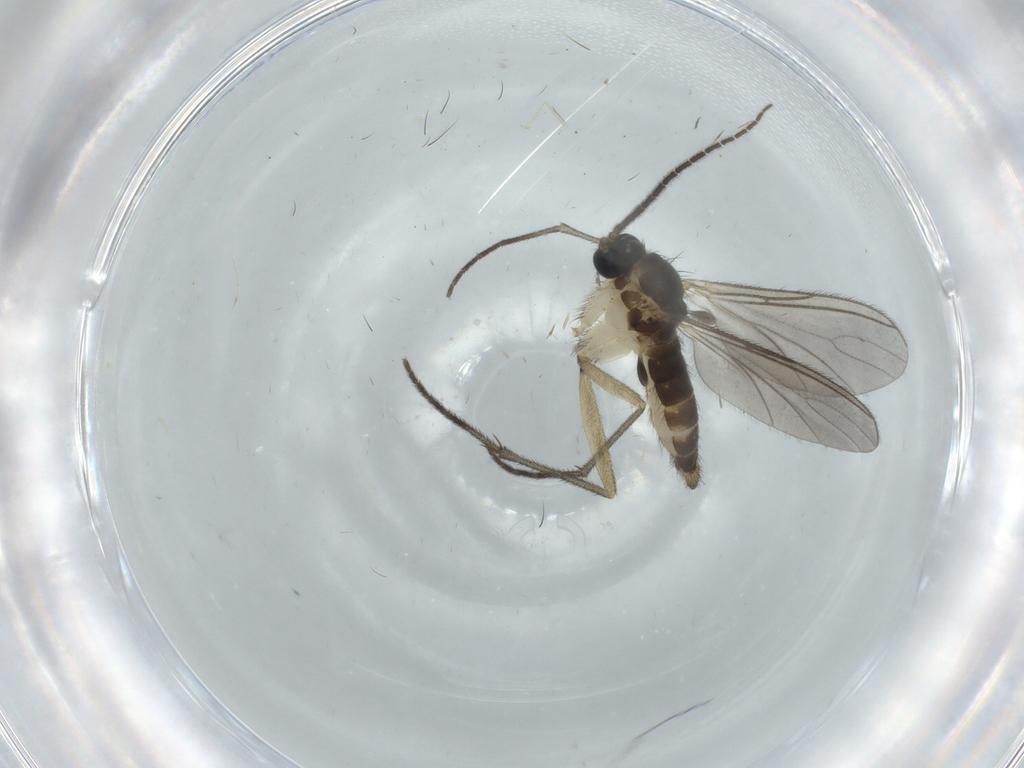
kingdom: Animalia
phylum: Arthropoda
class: Insecta
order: Diptera
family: Sciaridae
